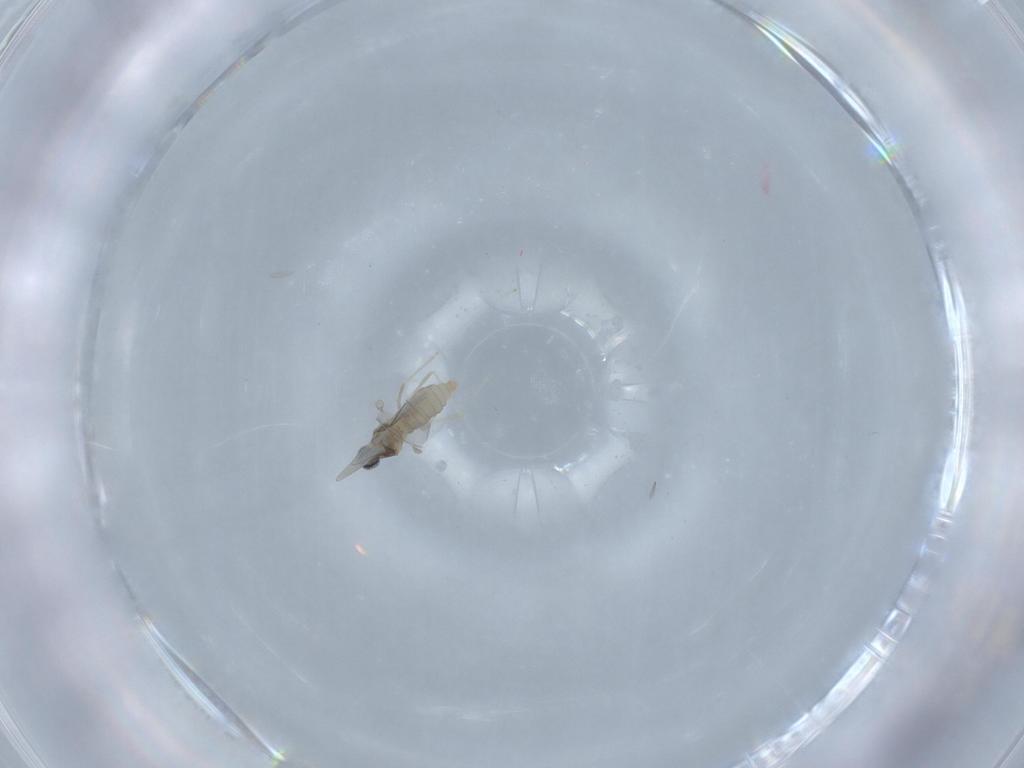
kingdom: Animalia
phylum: Arthropoda
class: Insecta
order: Diptera
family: Cecidomyiidae
